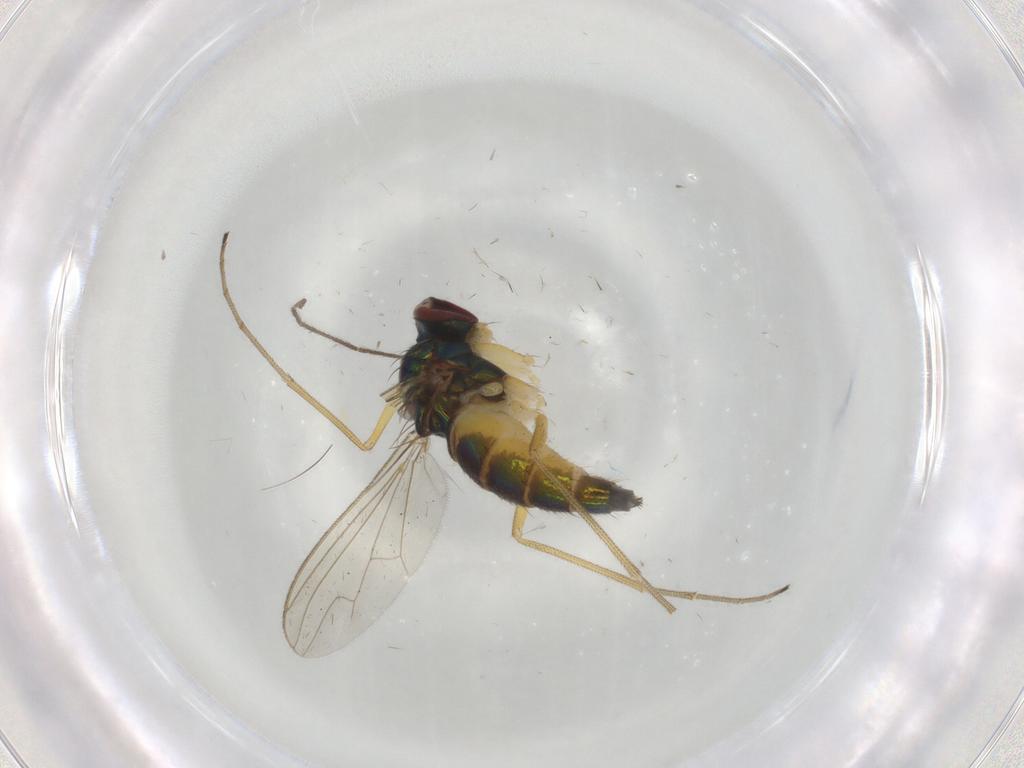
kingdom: Animalia
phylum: Arthropoda
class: Insecta
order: Diptera
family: Dolichopodidae
